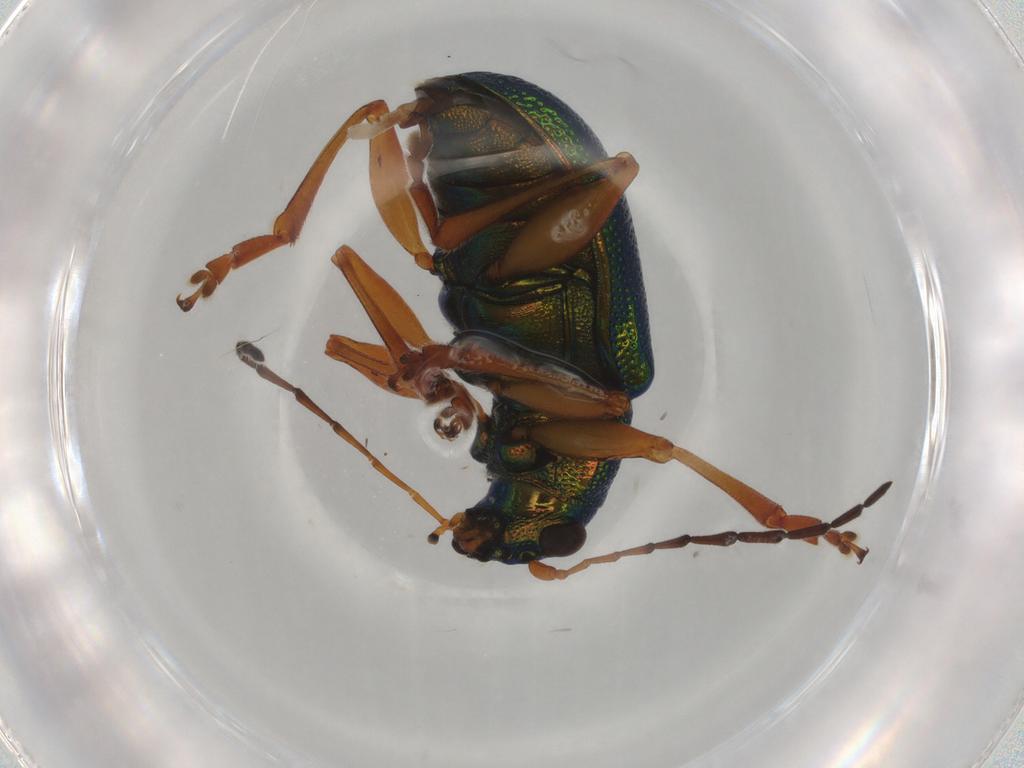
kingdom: Animalia
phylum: Arthropoda
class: Insecta
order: Coleoptera
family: Chrysomelidae
